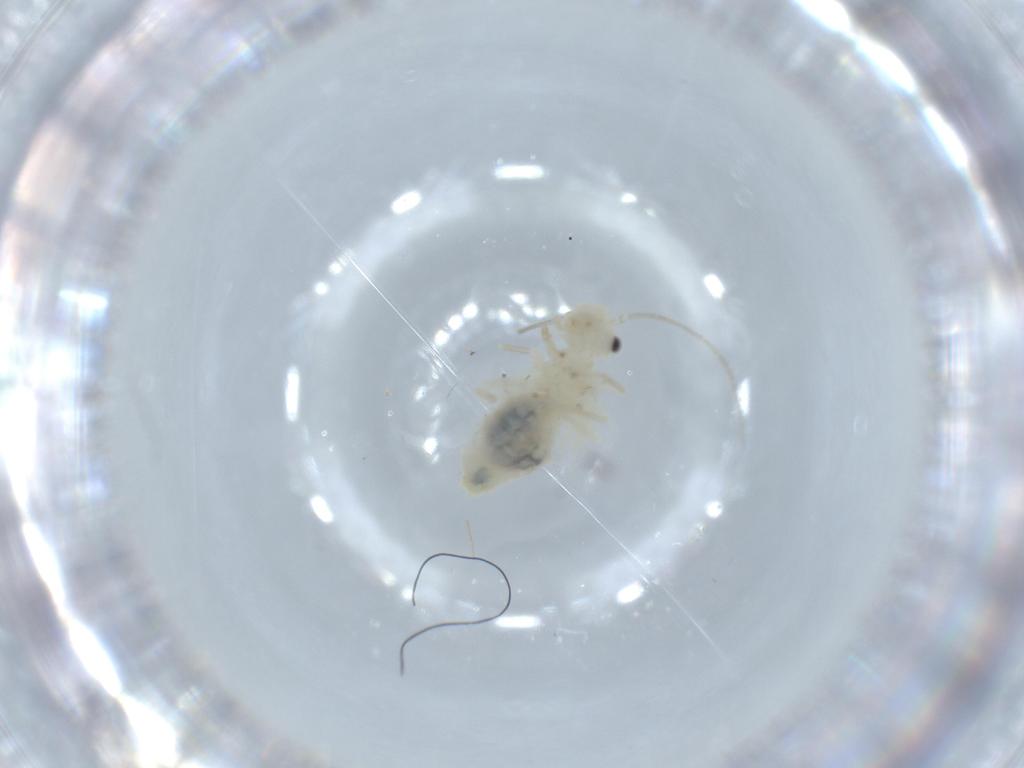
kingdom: Animalia
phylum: Arthropoda
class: Insecta
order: Psocodea
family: Caeciliusidae
